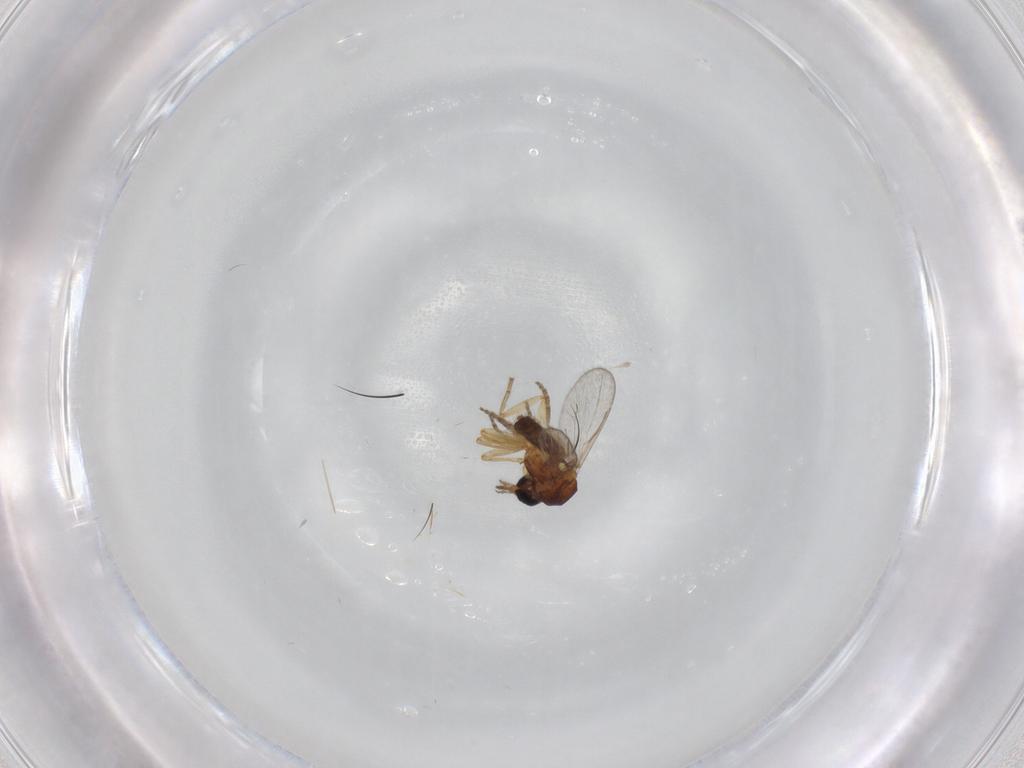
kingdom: Animalia
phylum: Arthropoda
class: Insecta
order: Diptera
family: Ceratopogonidae
